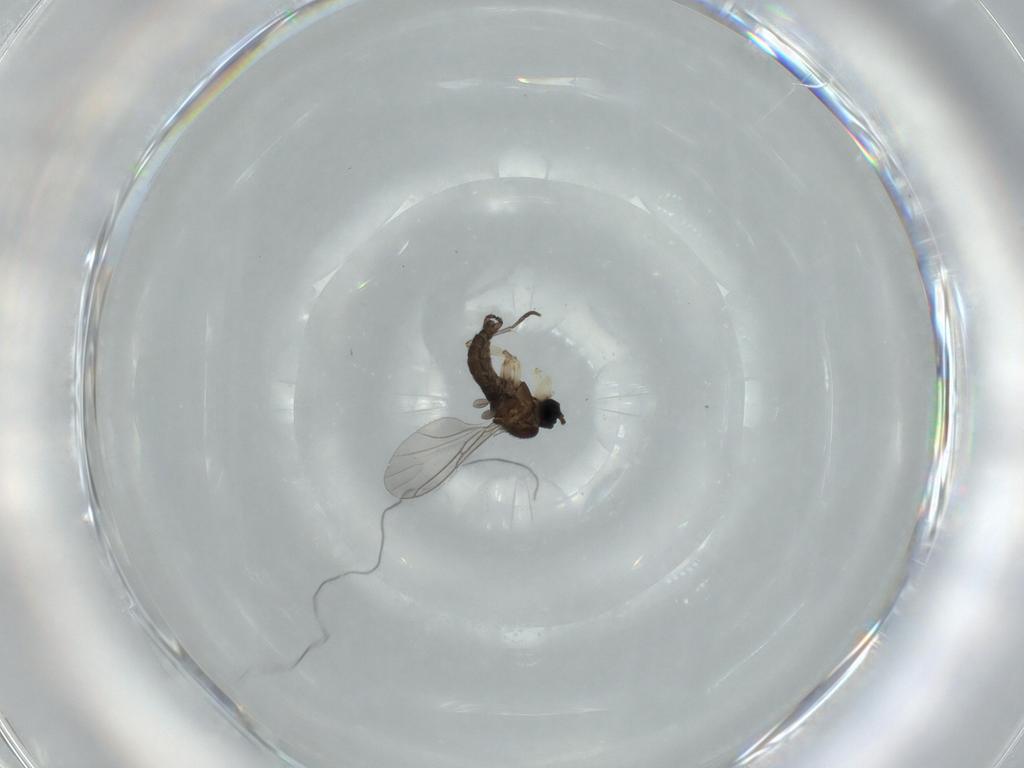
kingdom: Animalia
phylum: Arthropoda
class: Insecta
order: Diptera
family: Sciaridae
